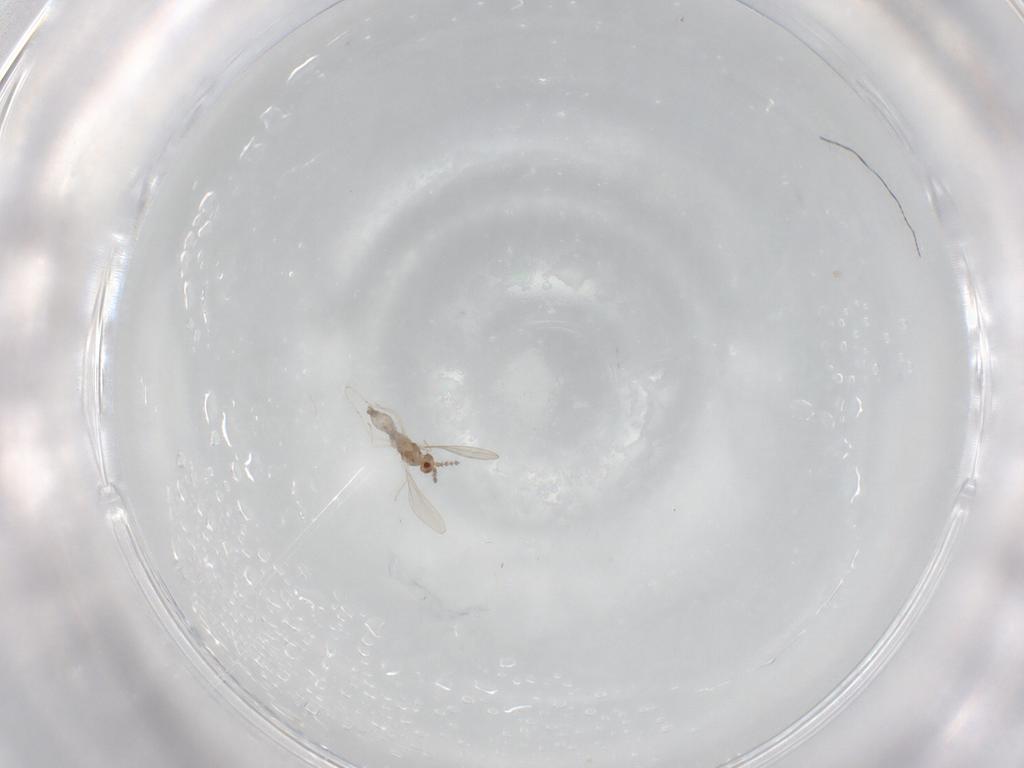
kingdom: Animalia
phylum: Arthropoda
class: Insecta
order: Diptera
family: Tabanidae
